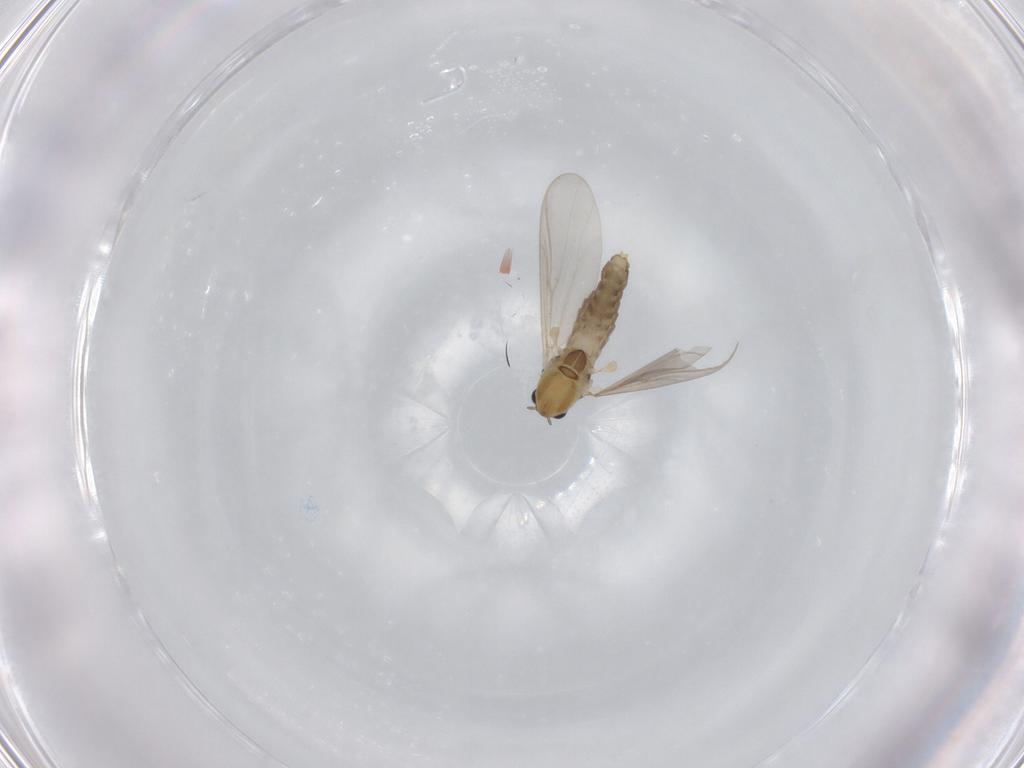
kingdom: Animalia
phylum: Arthropoda
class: Insecta
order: Diptera
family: Chironomidae
